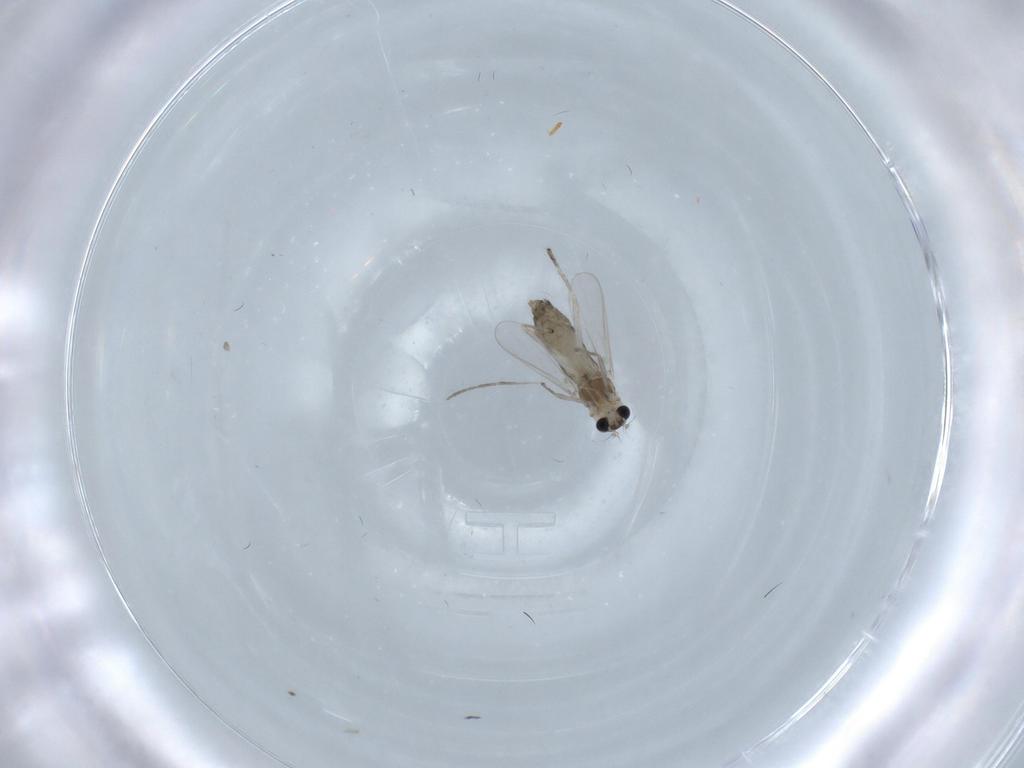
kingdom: Animalia
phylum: Arthropoda
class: Insecta
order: Diptera
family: Chironomidae
